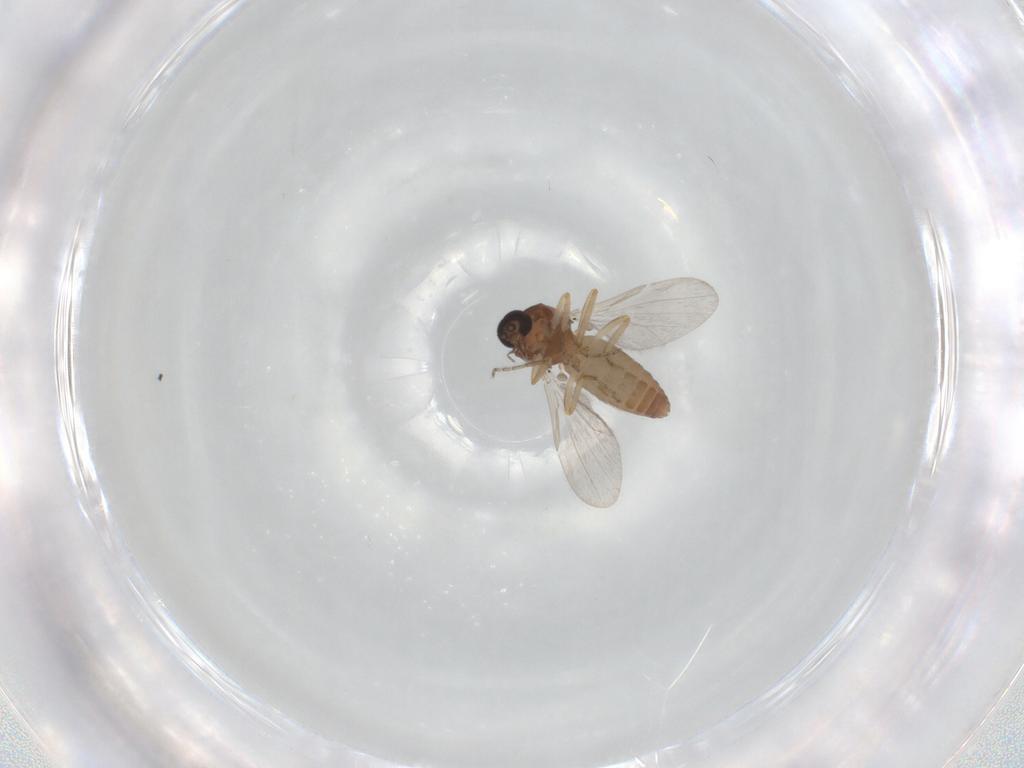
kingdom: Animalia
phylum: Arthropoda
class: Insecta
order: Diptera
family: Ceratopogonidae
